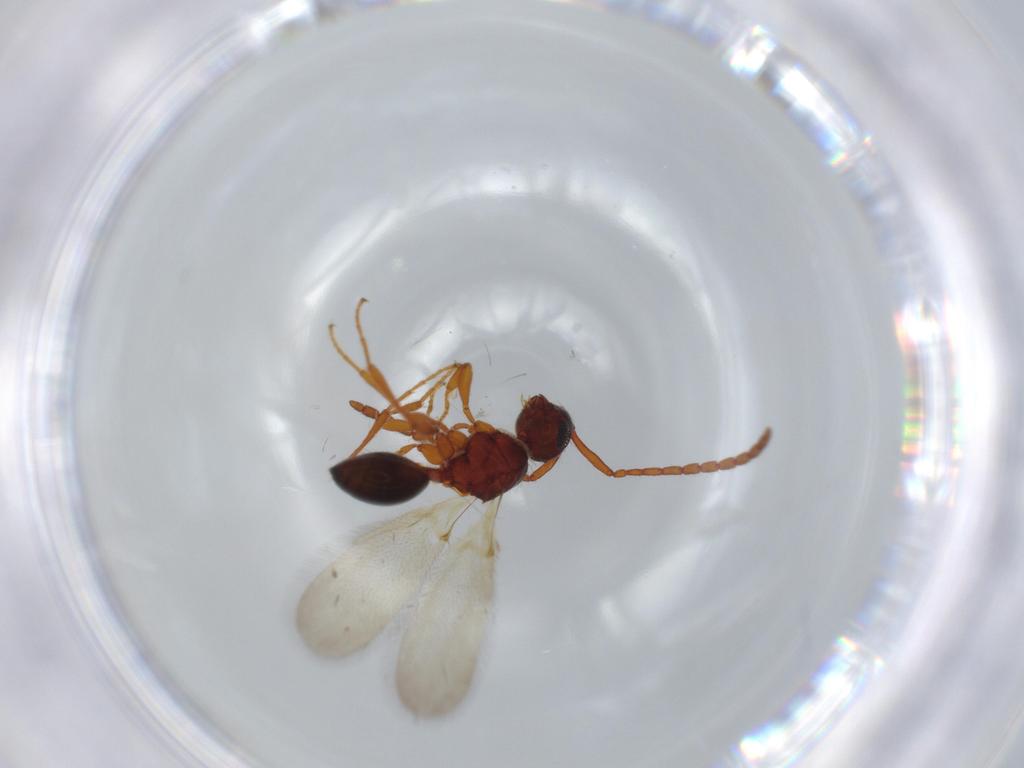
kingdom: Animalia
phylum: Arthropoda
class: Insecta
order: Hymenoptera
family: Diapriidae
